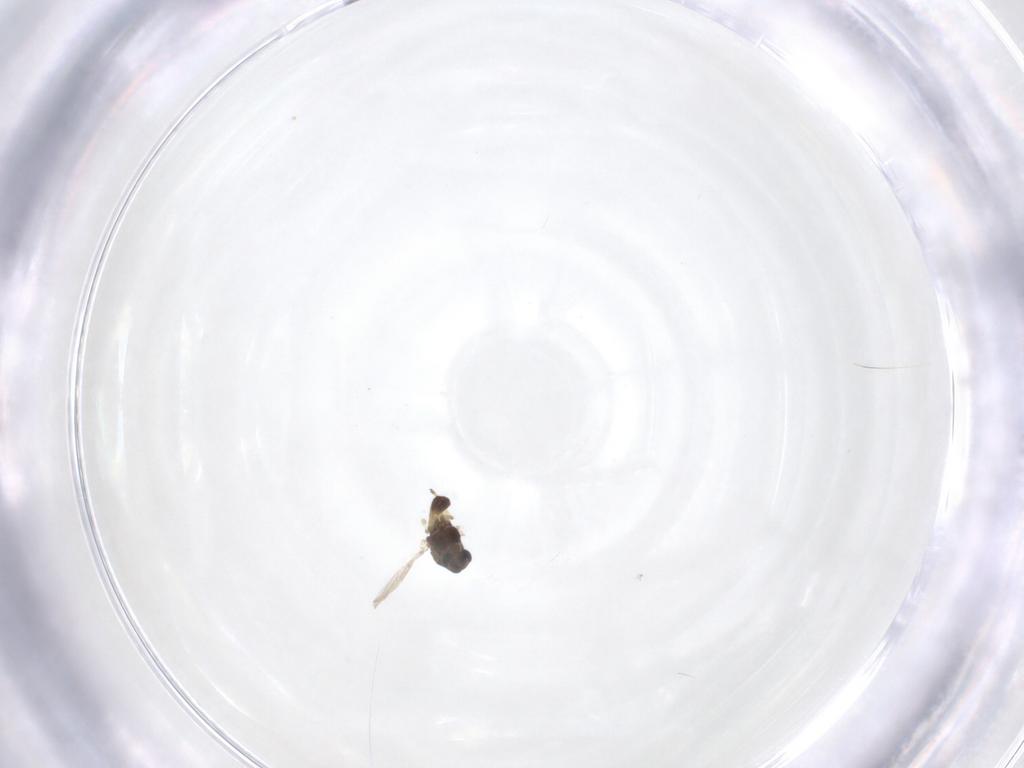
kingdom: Animalia
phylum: Arthropoda
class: Insecta
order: Diptera
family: Chironomidae
